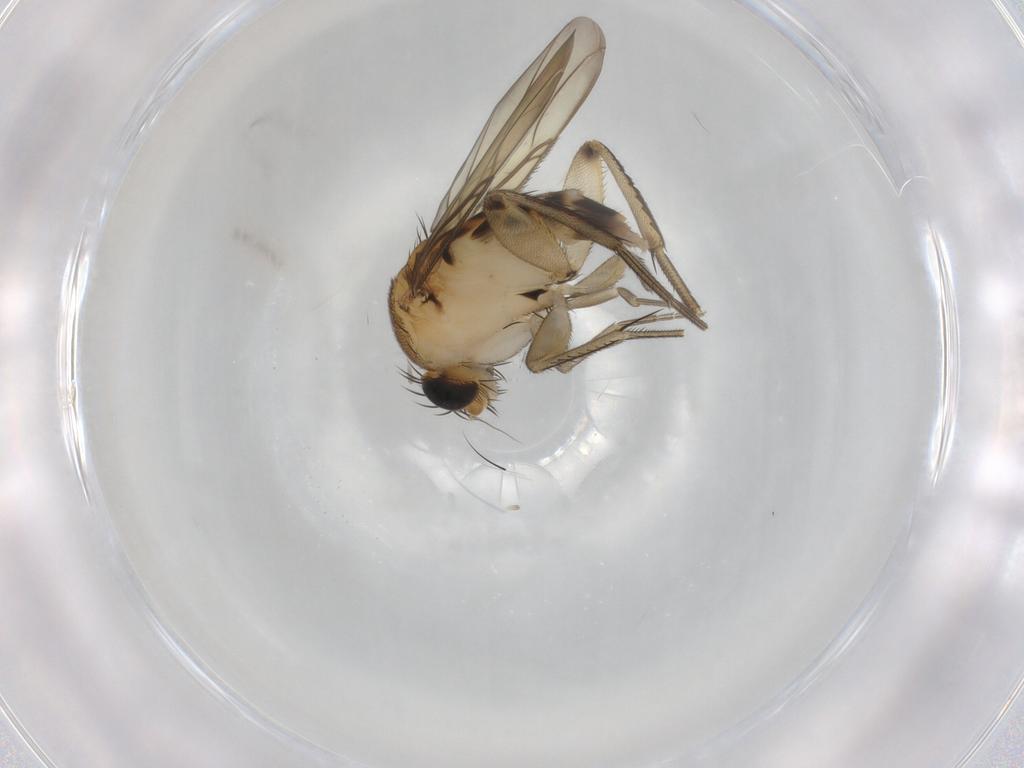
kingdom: Animalia
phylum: Arthropoda
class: Insecta
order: Diptera
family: Phoridae
